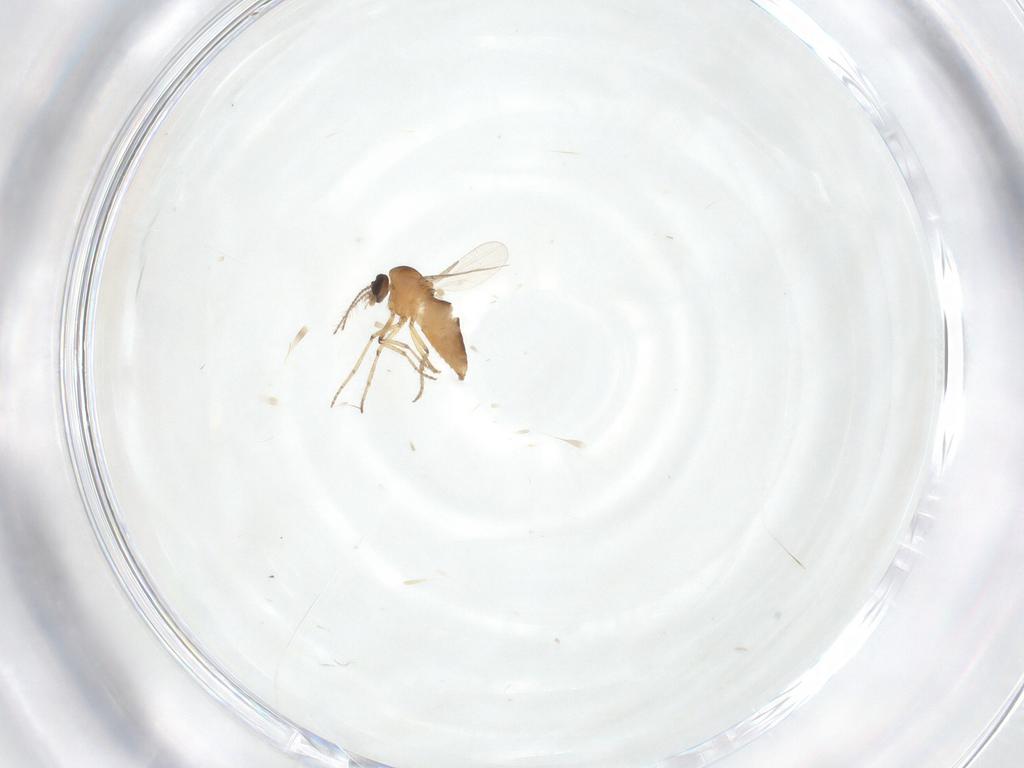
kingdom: Animalia
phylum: Arthropoda
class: Insecta
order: Diptera
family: Ceratopogonidae
